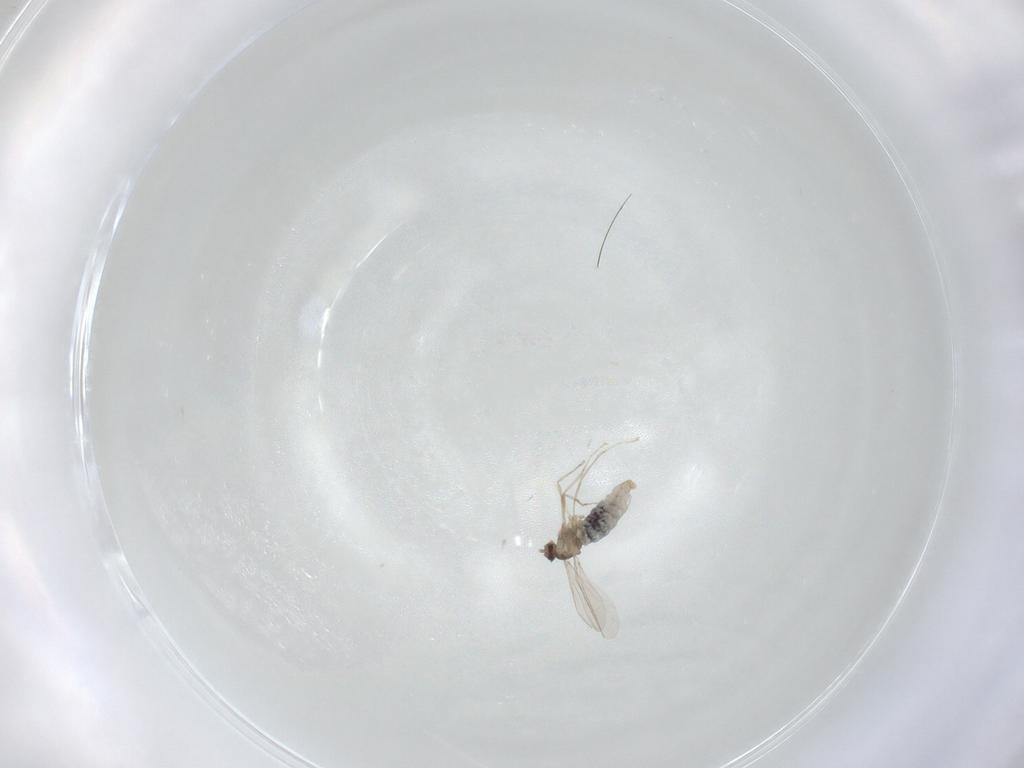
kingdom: Animalia
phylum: Arthropoda
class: Insecta
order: Diptera
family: Cecidomyiidae
